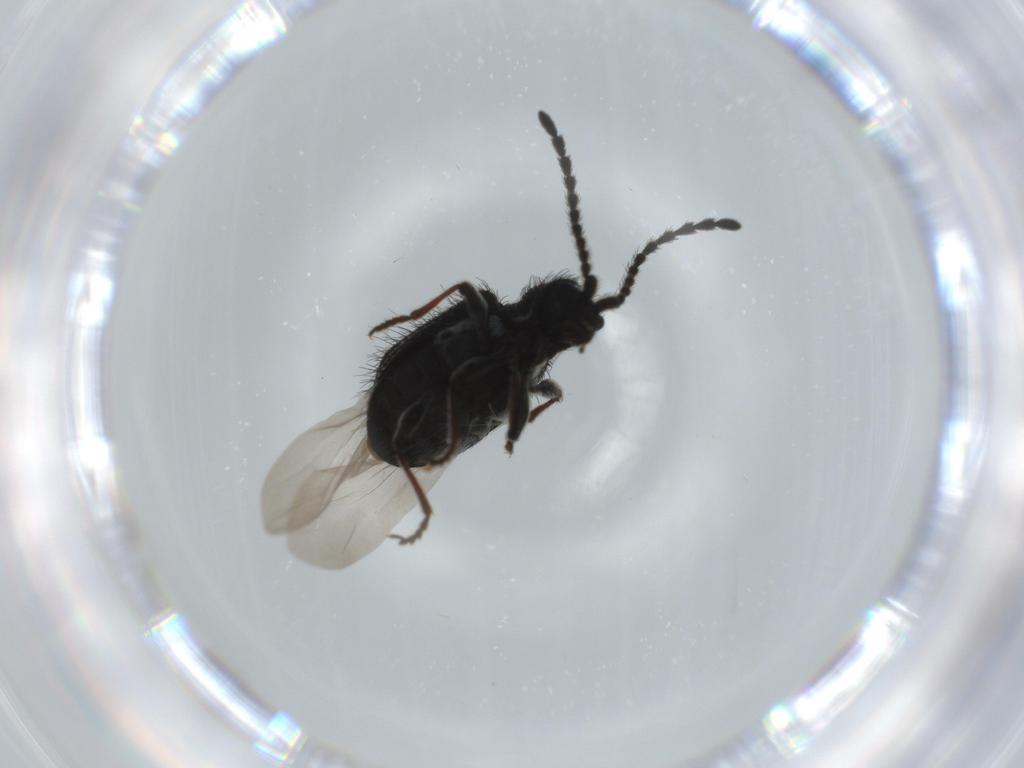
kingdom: Animalia
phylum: Arthropoda
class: Insecta
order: Coleoptera
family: Ptinidae
